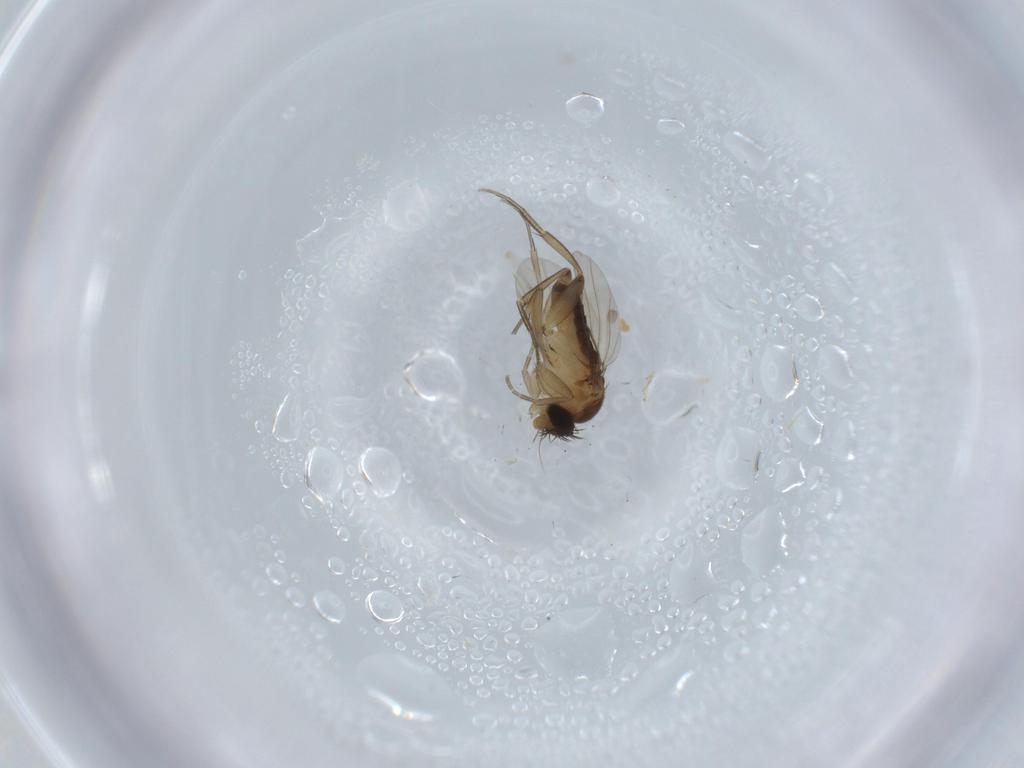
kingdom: Animalia
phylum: Arthropoda
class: Insecta
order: Diptera
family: Phoridae
